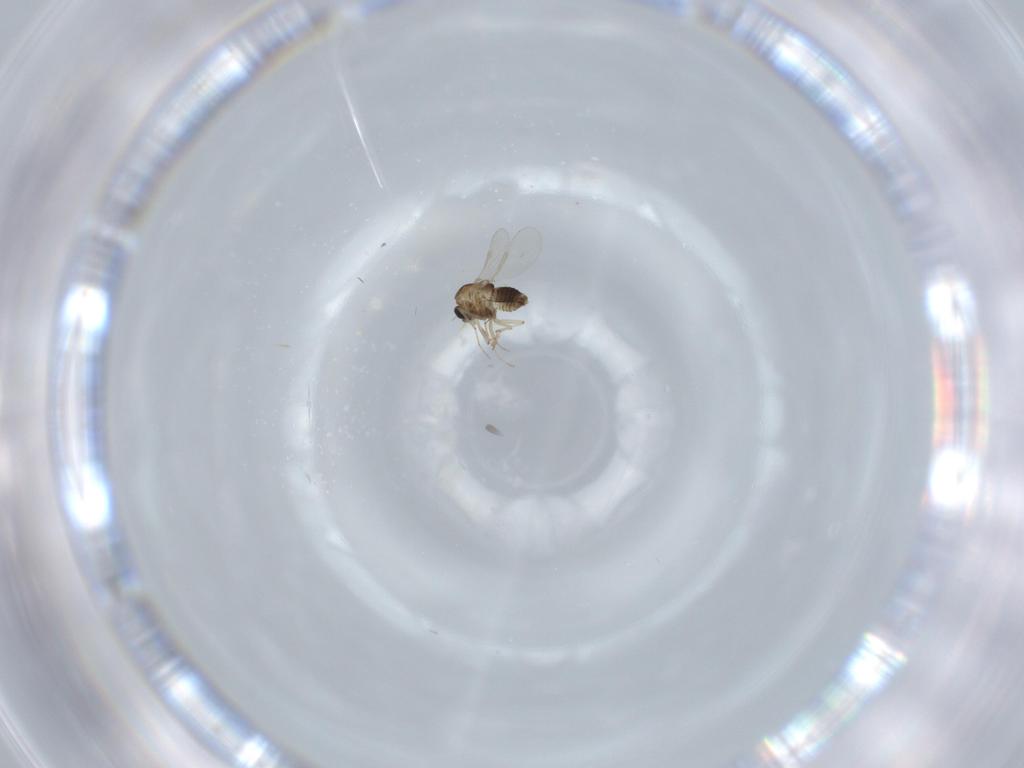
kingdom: Animalia
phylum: Arthropoda
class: Insecta
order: Diptera
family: Chironomidae
